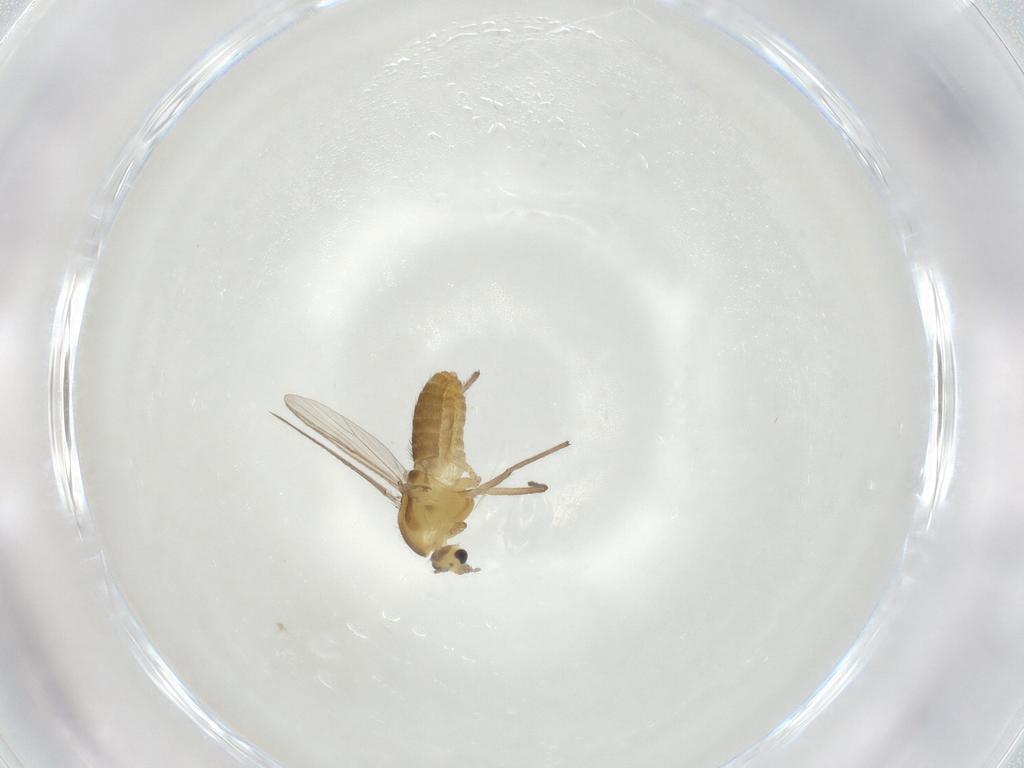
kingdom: Animalia
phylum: Arthropoda
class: Insecta
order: Diptera
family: Chironomidae
